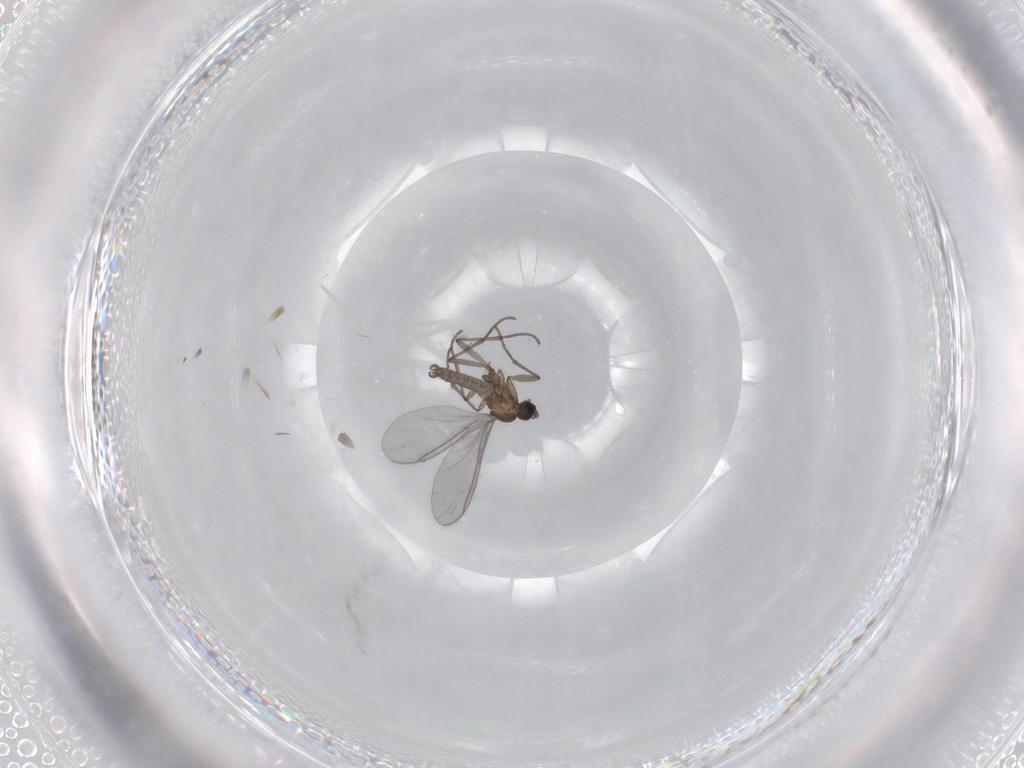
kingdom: Animalia
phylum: Arthropoda
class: Insecta
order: Diptera
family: Sciaridae
